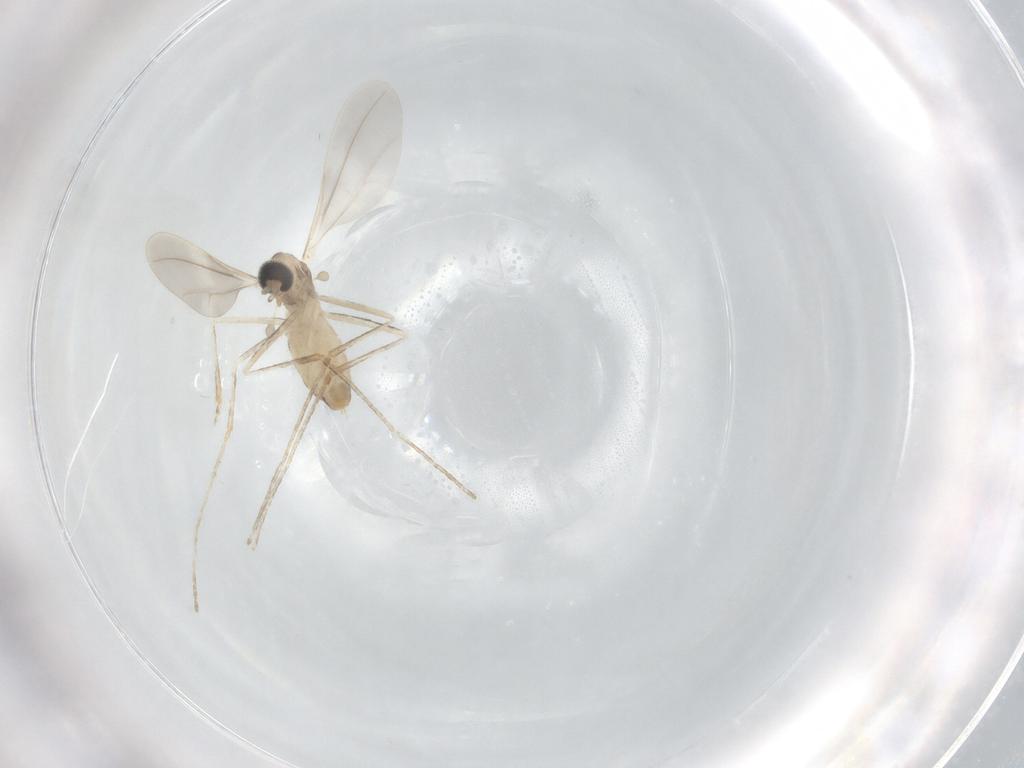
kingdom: Animalia
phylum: Arthropoda
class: Insecta
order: Diptera
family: Cecidomyiidae
